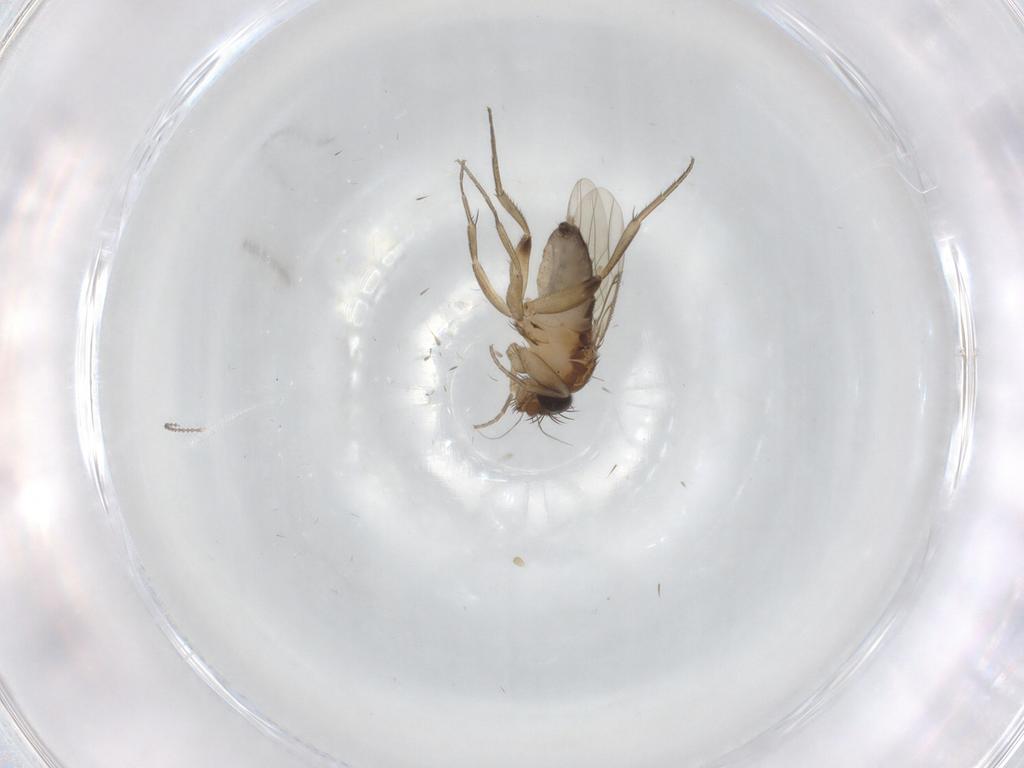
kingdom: Animalia
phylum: Arthropoda
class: Insecta
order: Diptera
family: Phoridae
